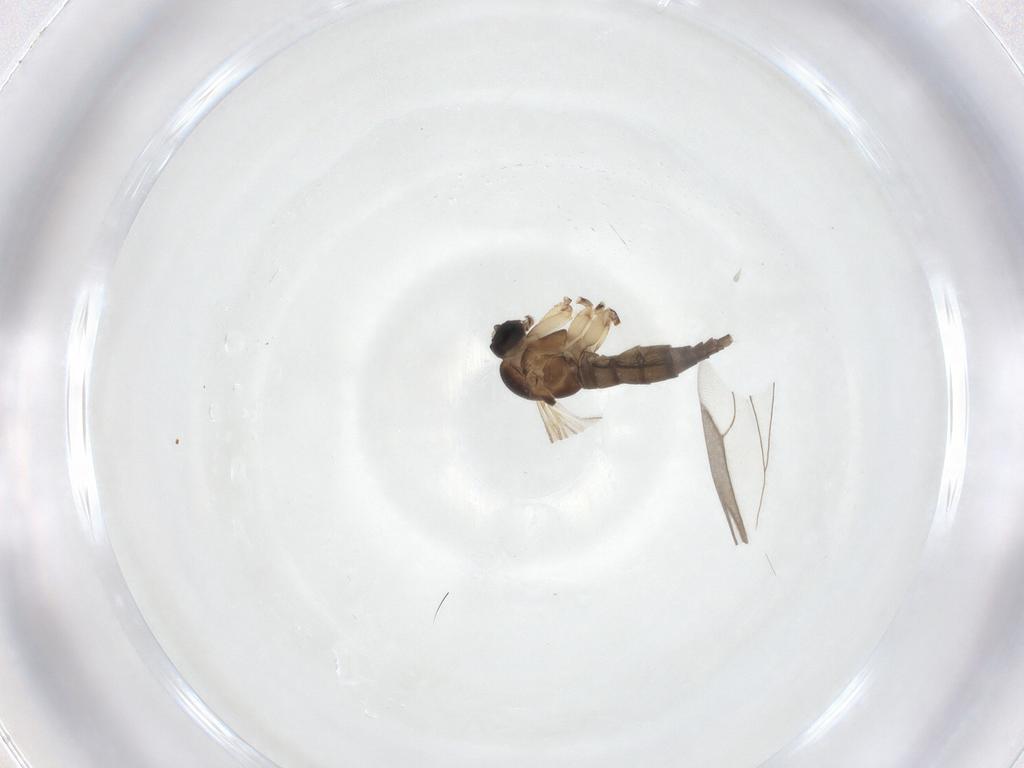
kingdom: Animalia
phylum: Arthropoda
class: Insecta
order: Diptera
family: Sciaridae
